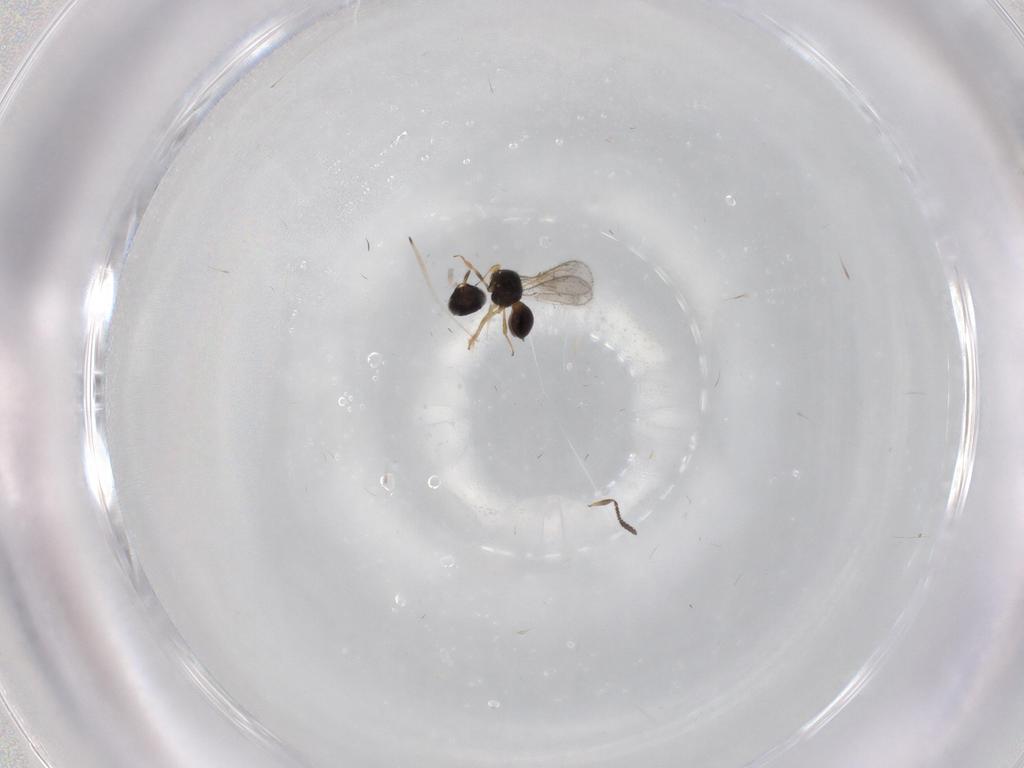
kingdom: Animalia
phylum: Arthropoda
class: Insecta
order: Hymenoptera
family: Scelionidae
